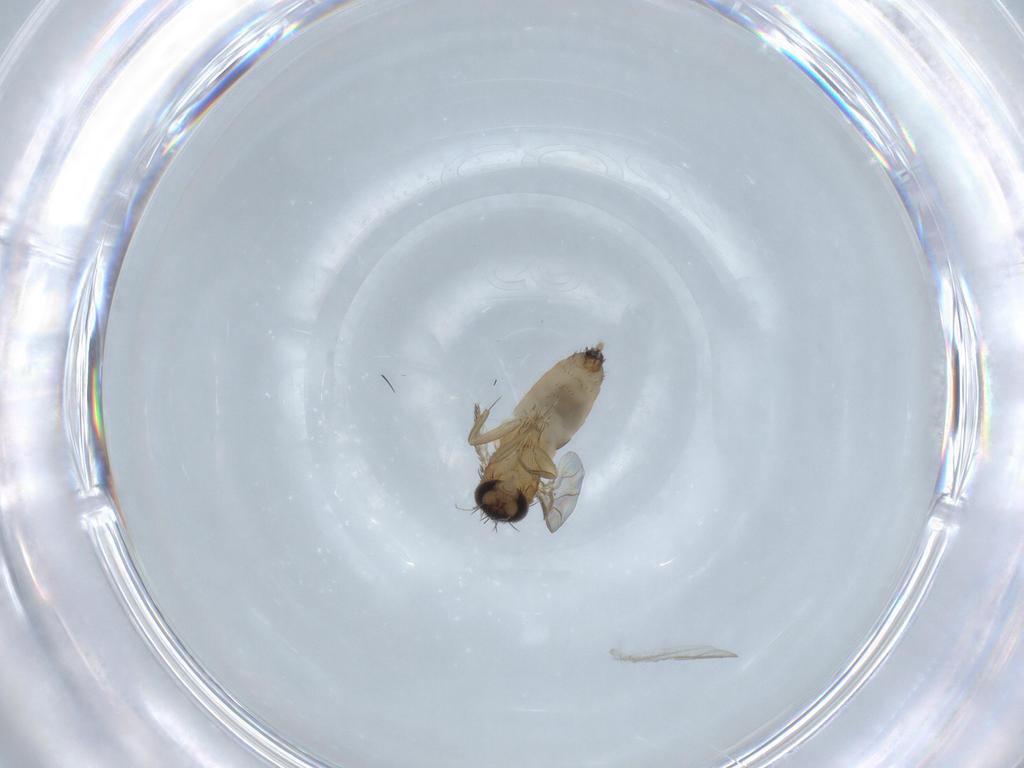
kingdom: Animalia
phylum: Arthropoda
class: Insecta
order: Diptera
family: Phoridae
